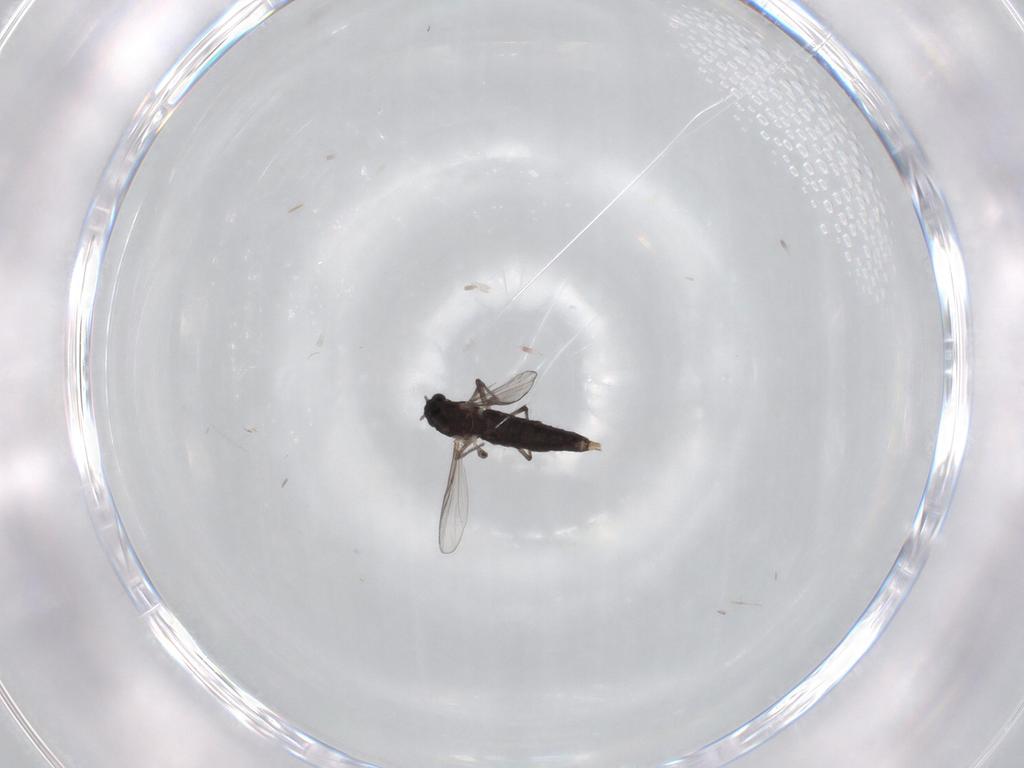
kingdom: Animalia
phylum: Arthropoda
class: Insecta
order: Diptera
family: Chironomidae
